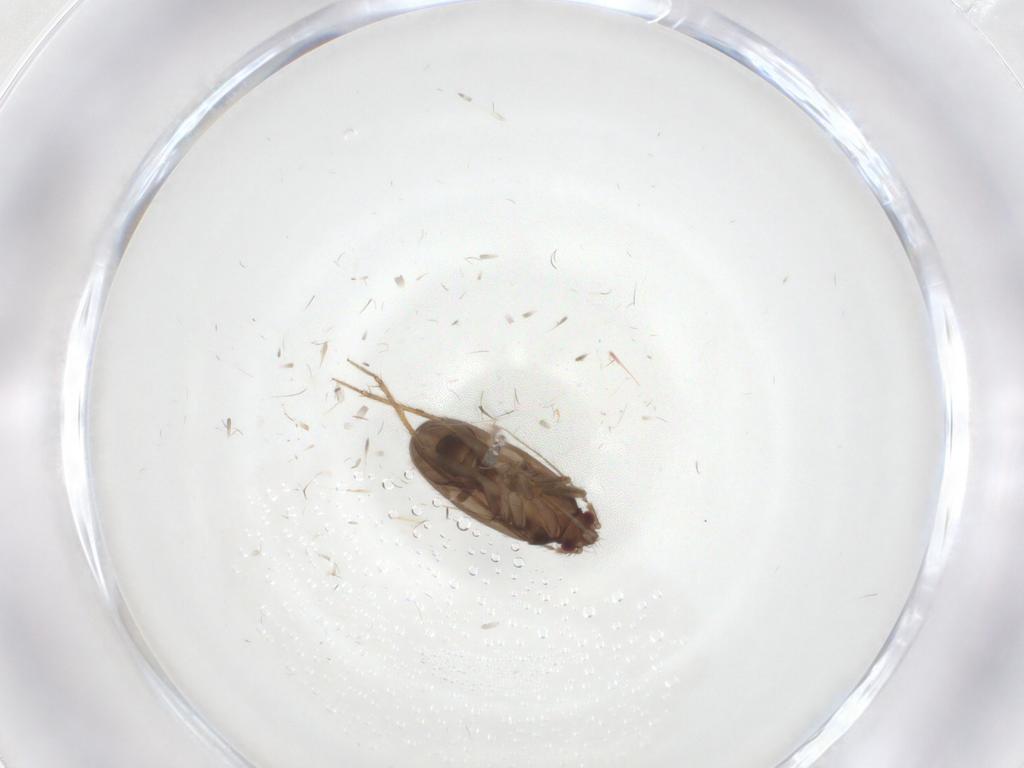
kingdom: Animalia
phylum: Arthropoda
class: Insecta
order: Hemiptera
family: Ceratocombidae
